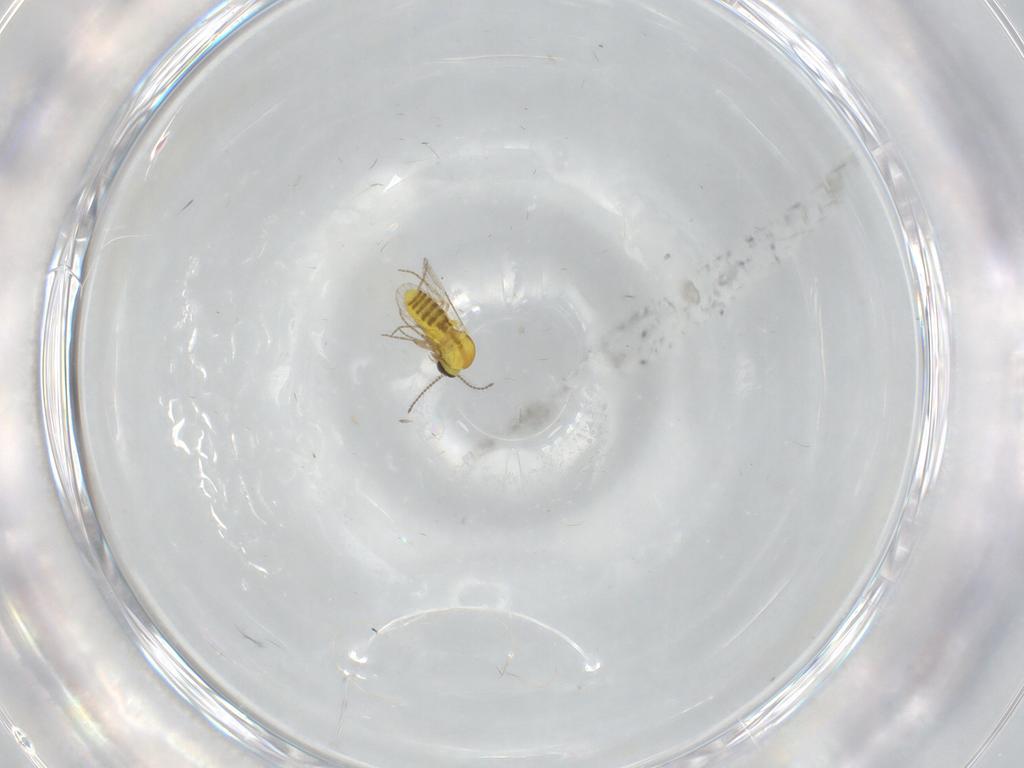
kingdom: Animalia
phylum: Arthropoda
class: Insecta
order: Diptera
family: Ceratopogonidae
